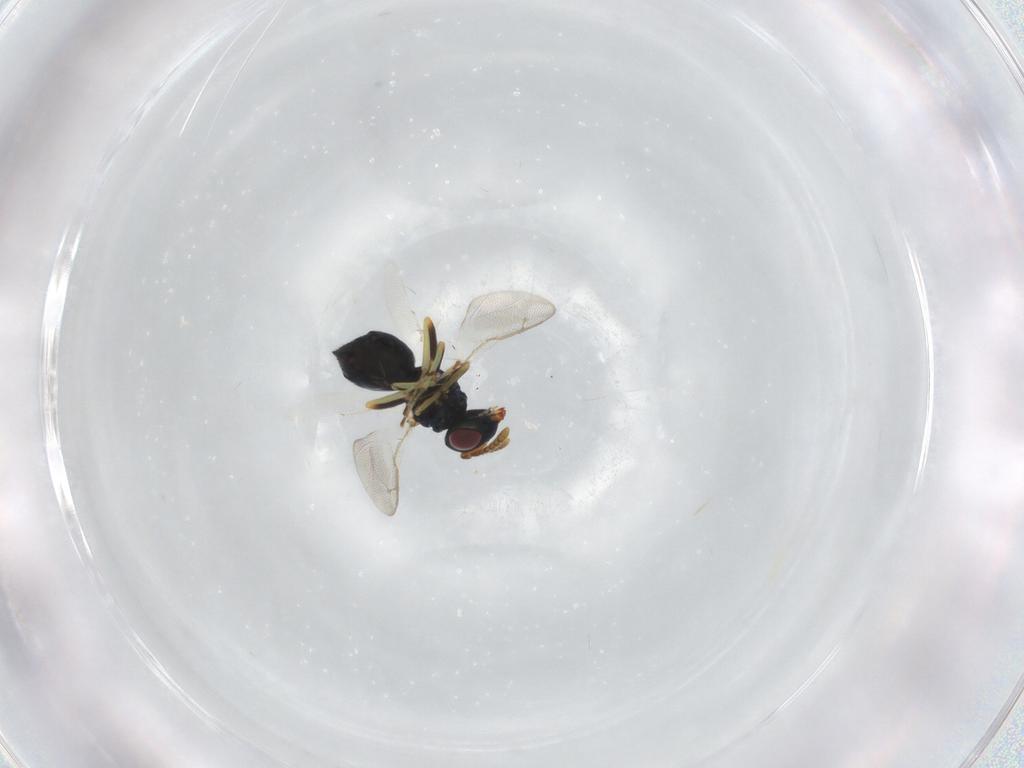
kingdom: Animalia
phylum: Arthropoda
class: Insecta
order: Hymenoptera
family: Pteromalidae
